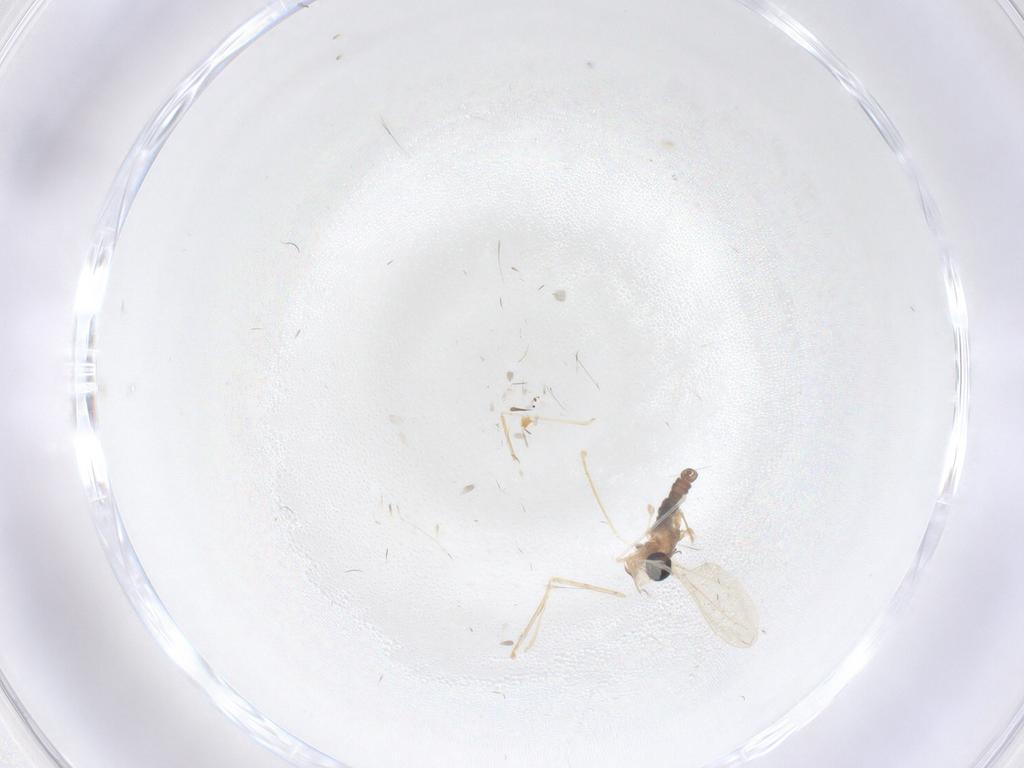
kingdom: Animalia
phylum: Arthropoda
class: Insecta
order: Diptera
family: Cecidomyiidae
